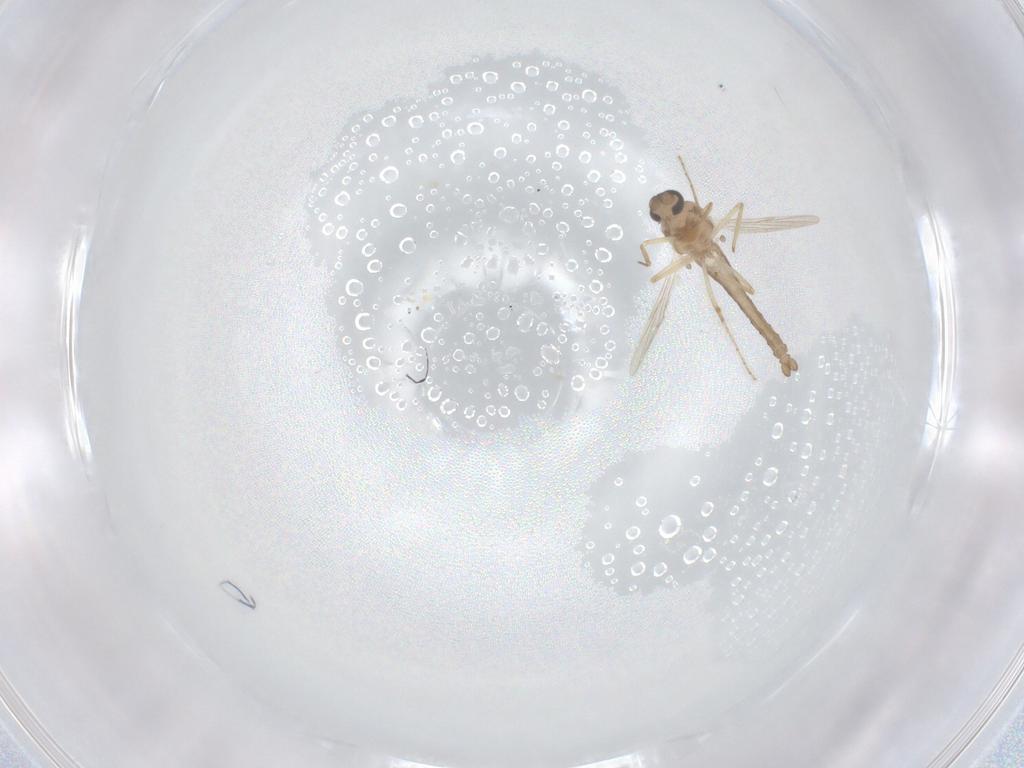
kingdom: Animalia
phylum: Arthropoda
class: Insecta
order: Diptera
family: Ceratopogonidae
